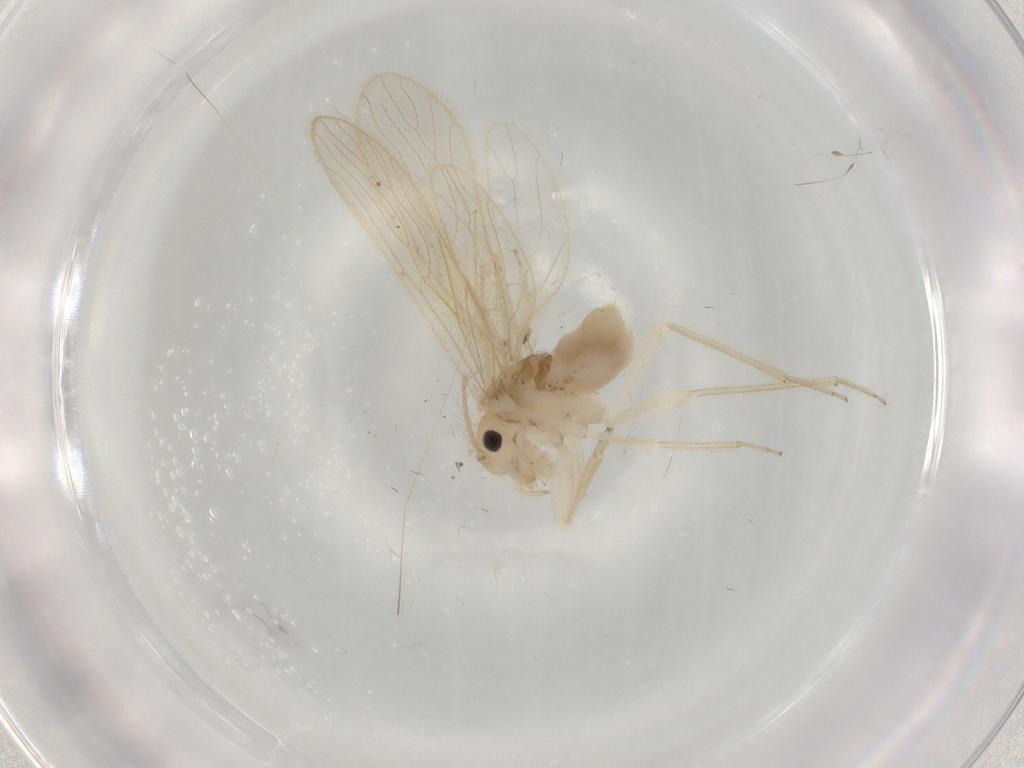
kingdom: Animalia
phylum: Arthropoda
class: Insecta
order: Psocodea
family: Cladiopsocidae
